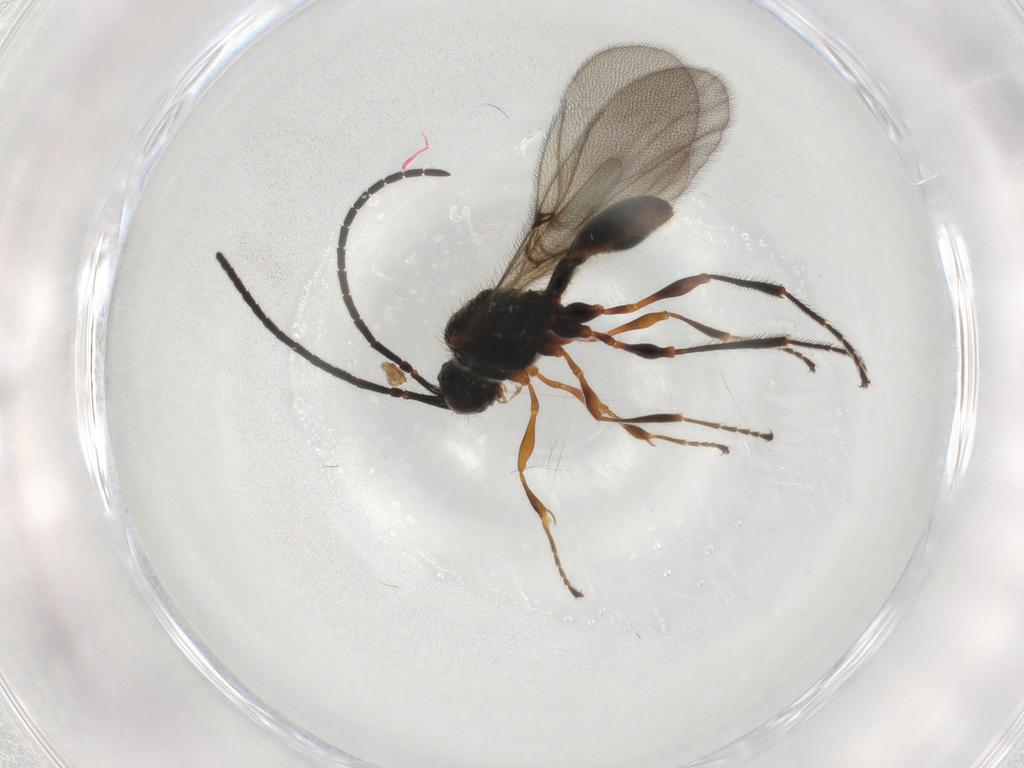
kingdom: Animalia
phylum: Arthropoda
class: Insecta
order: Hymenoptera
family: Diapriidae
